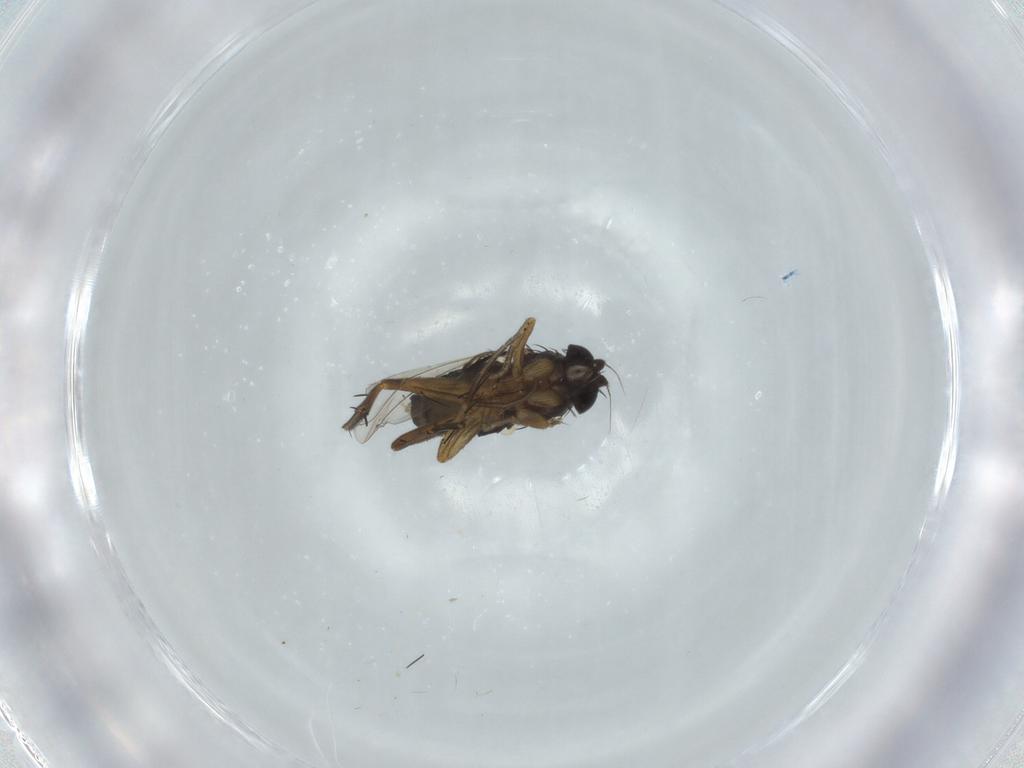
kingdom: Animalia
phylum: Arthropoda
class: Insecta
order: Diptera
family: Phoridae
